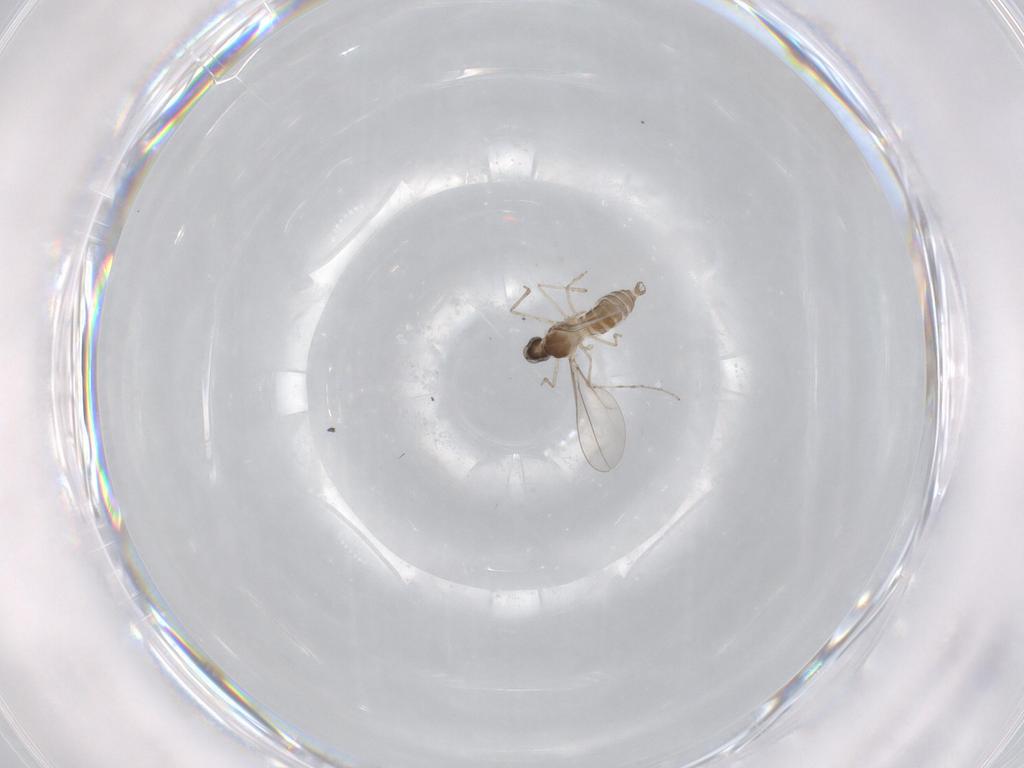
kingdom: Animalia
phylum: Arthropoda
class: Insecta
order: Diptera
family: Cecidomyiidae
